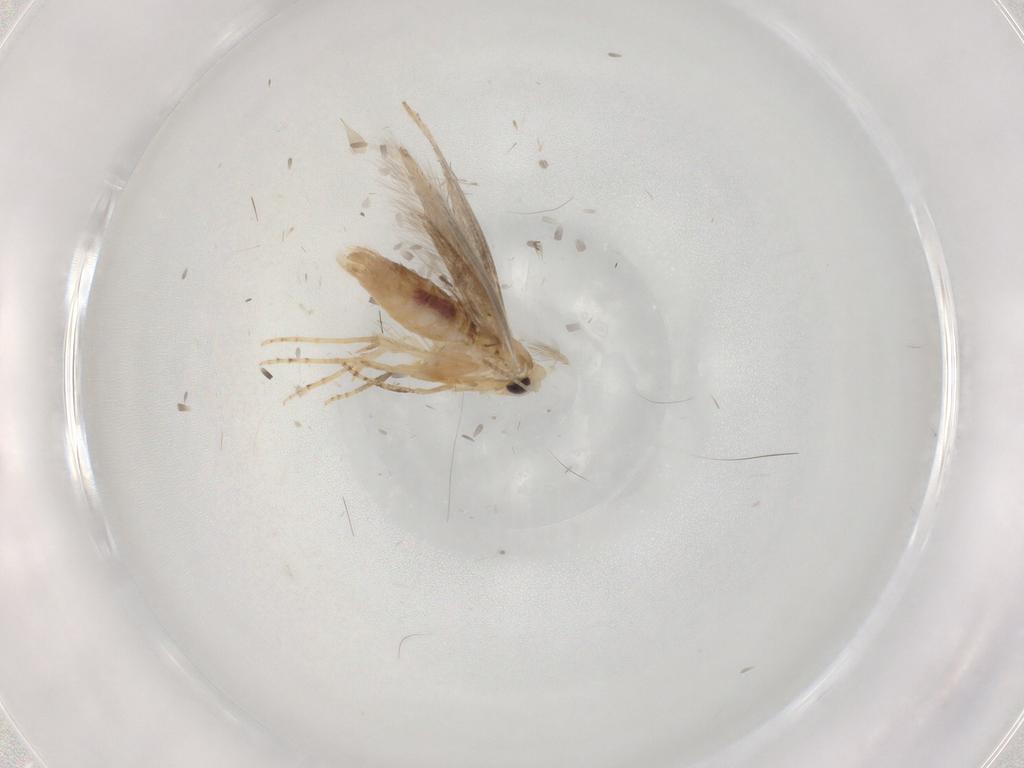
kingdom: Animalia
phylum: Arthropoda
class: Insecta
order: Lepidoptera
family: Bucculatricidae
